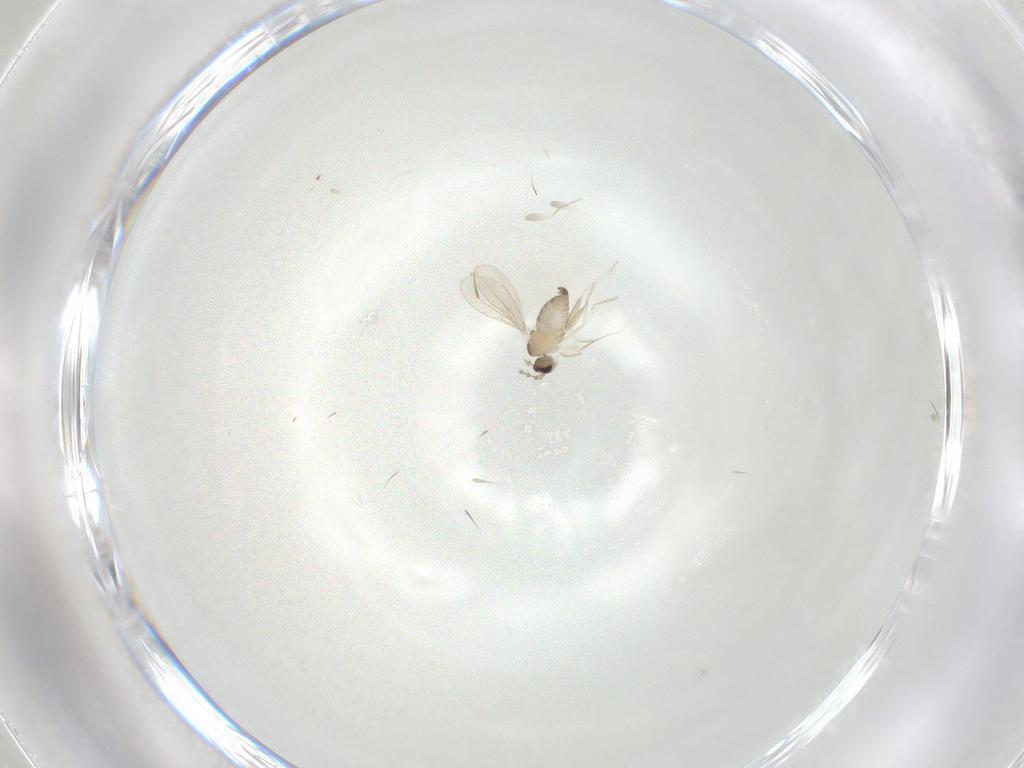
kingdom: Animalia
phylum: Arthropoda
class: Insecta
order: Diptera
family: Cecidomyiidae
